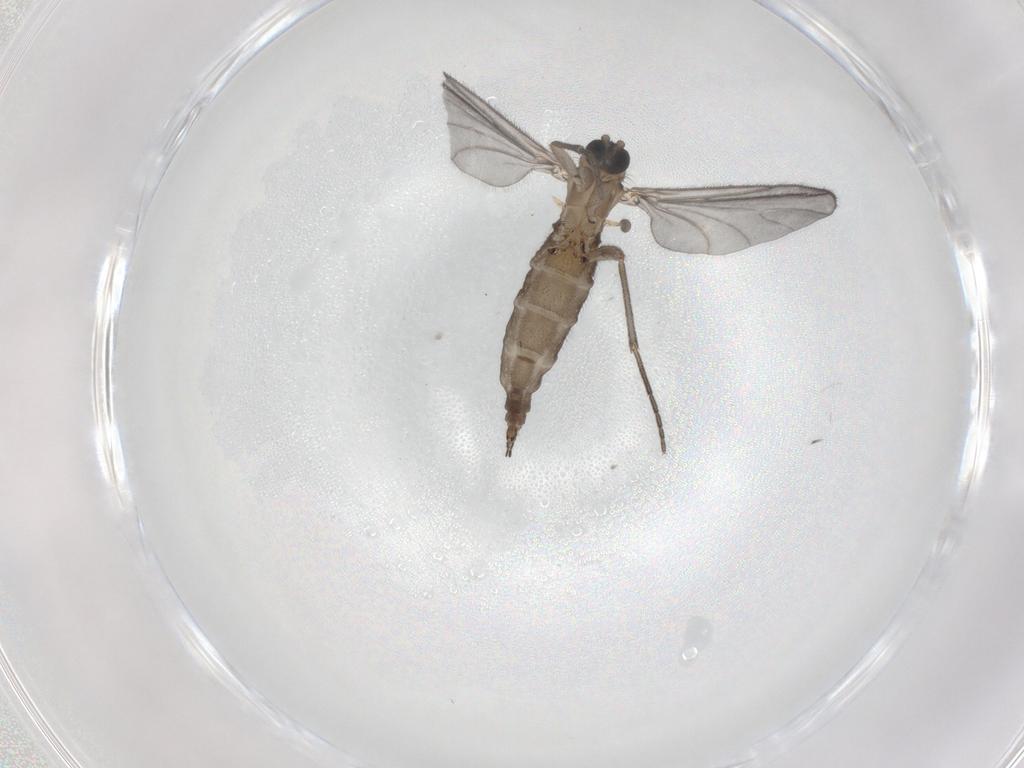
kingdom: Animalia
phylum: Arthropoda
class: Insecta
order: Diptera
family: Sciaridae
